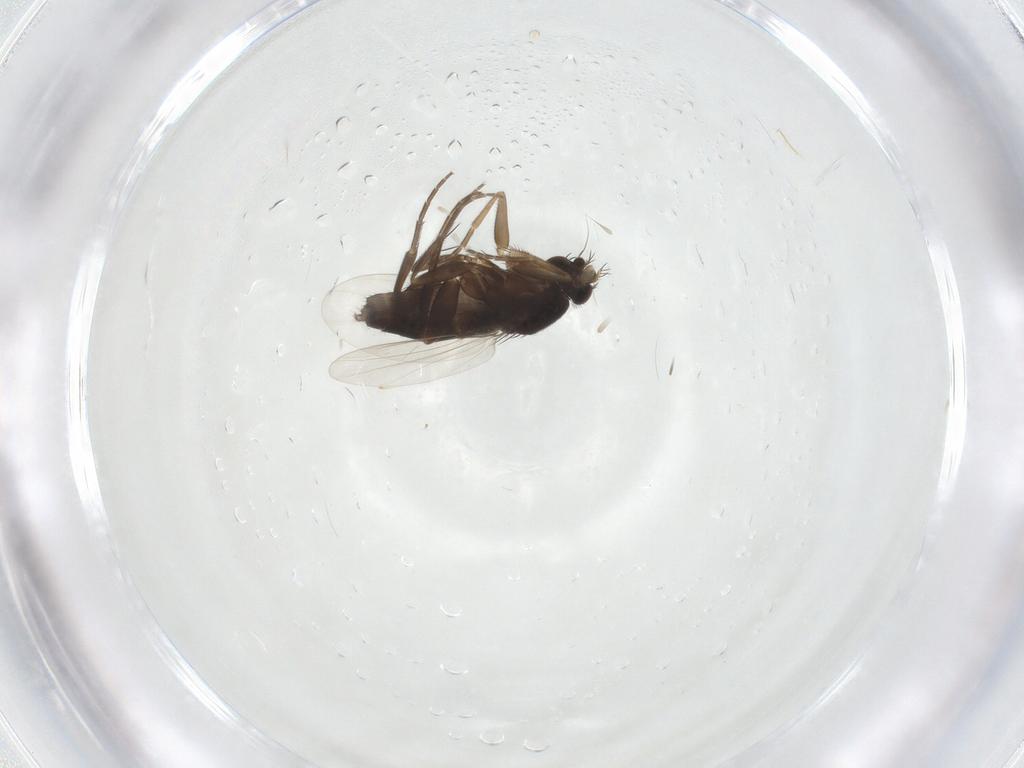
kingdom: Animalia
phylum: Arthropoda
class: Insecta
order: Diptera
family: Phoridae
